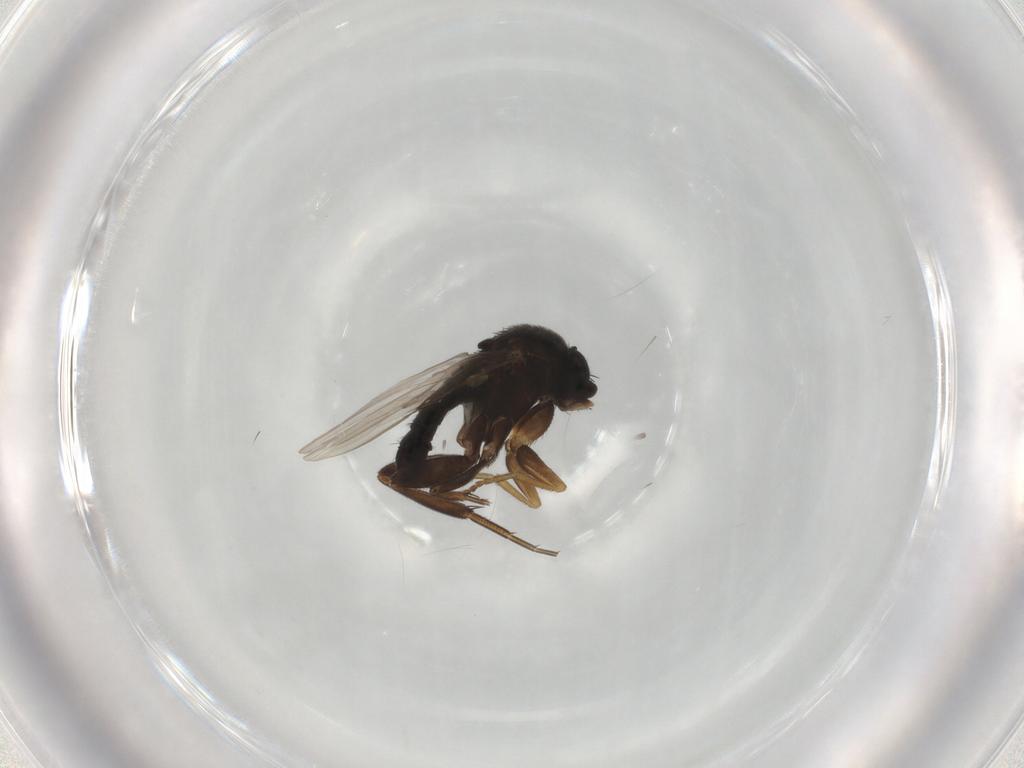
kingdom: Animalia
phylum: Arthropoda
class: Insecta
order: Diptera
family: Phoridae
